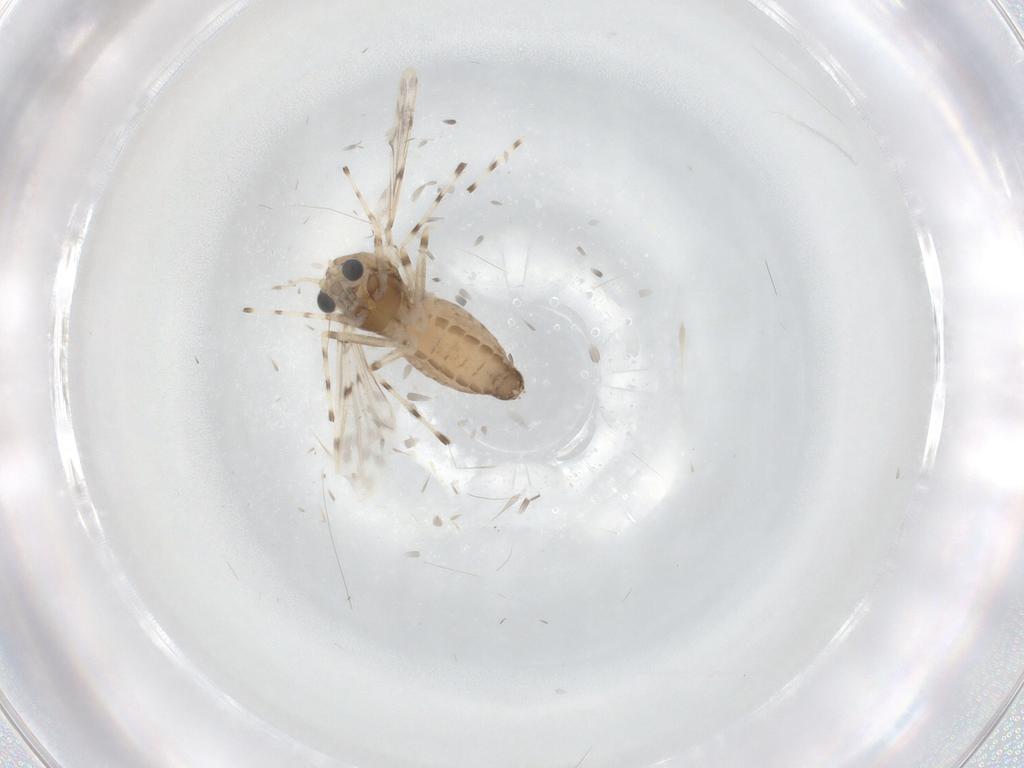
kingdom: Animalia
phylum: Arthropoda
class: Insecta
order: Diptera
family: Chironomidae
